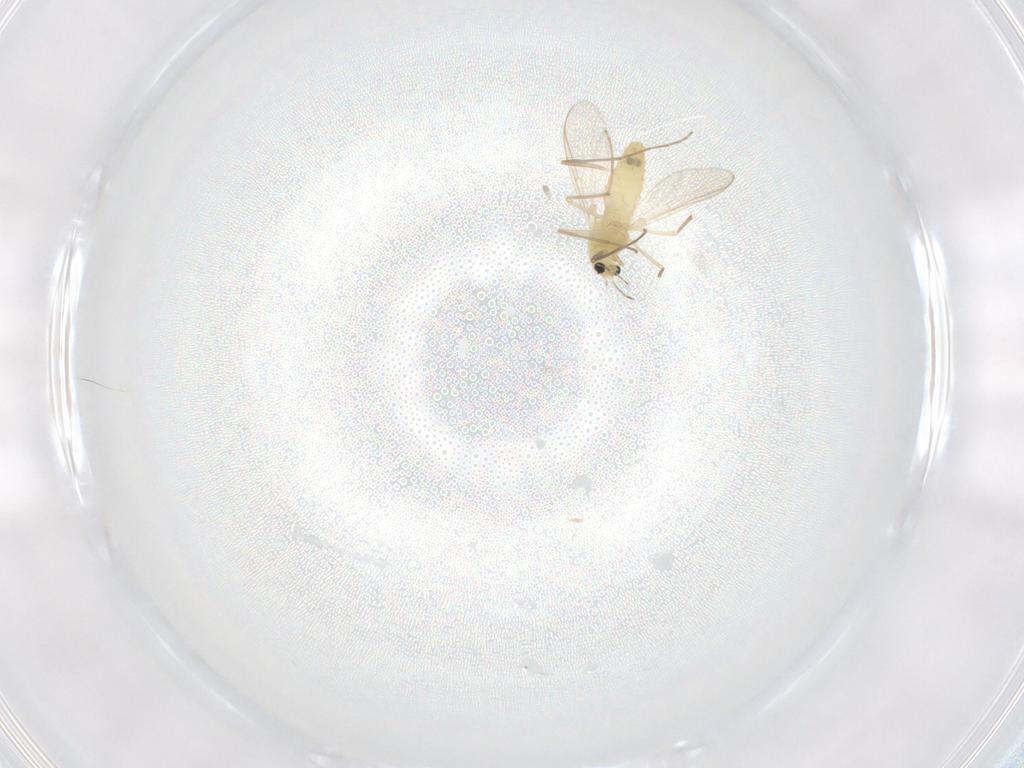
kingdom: Animalia
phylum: Arthropoda
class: Insecta
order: Diptera
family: Chironomidae
